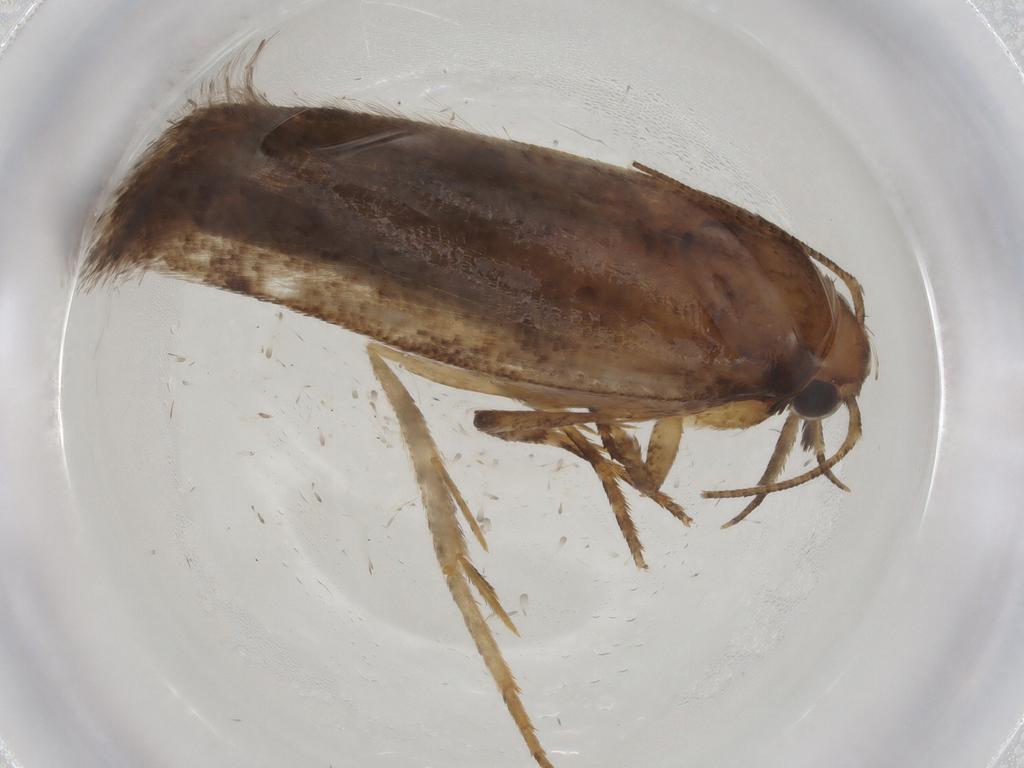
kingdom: Animalia
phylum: Arthropoda
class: Insecta
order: Lepidoptera
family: Gelechiidae
